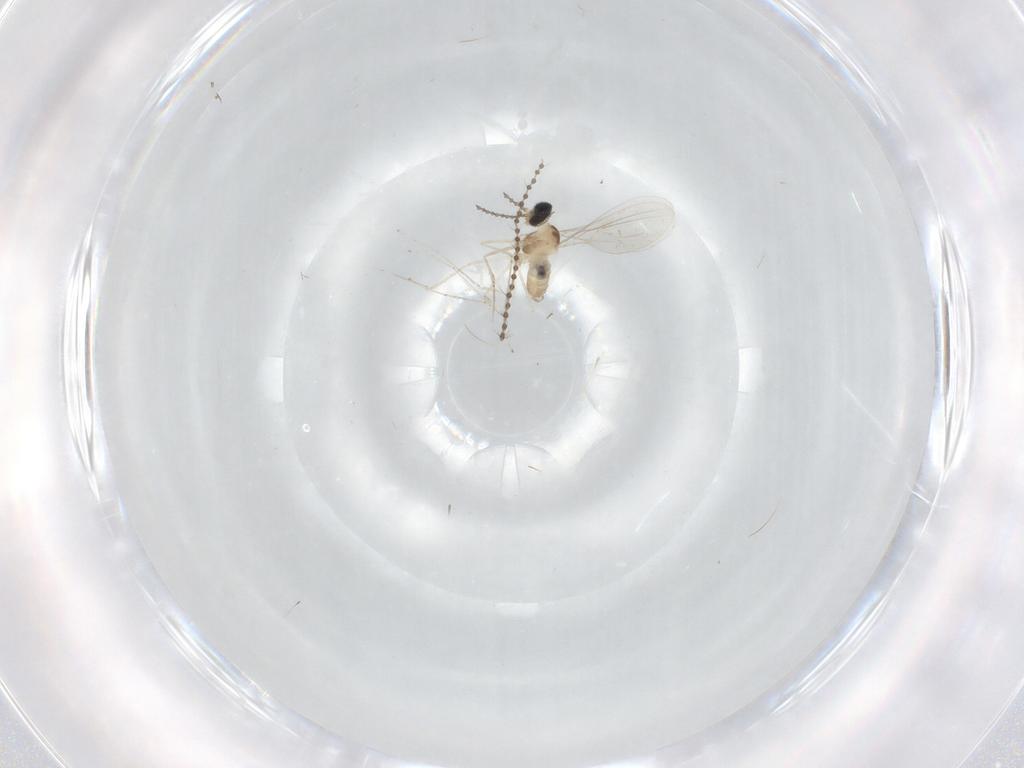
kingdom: Animalia
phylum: Arthropoda
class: Insecta
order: Diptera
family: Cecidomyiidae
